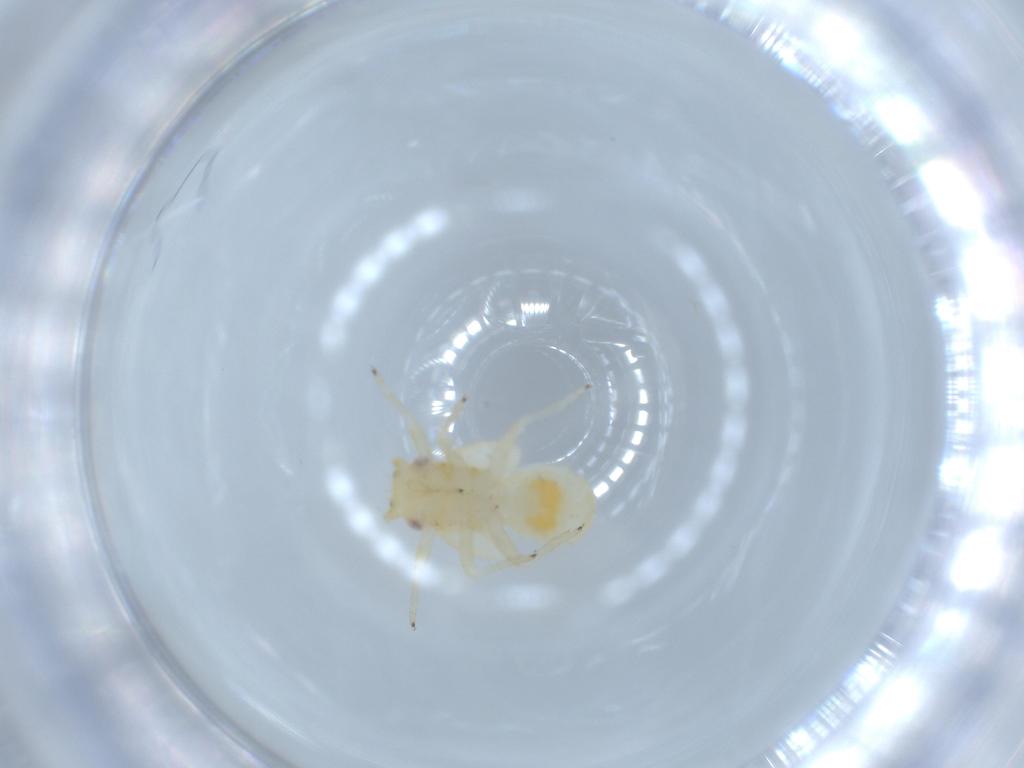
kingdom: Animalia
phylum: Arthropoda
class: Insecta
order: Hemiptera
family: Psyllidae
